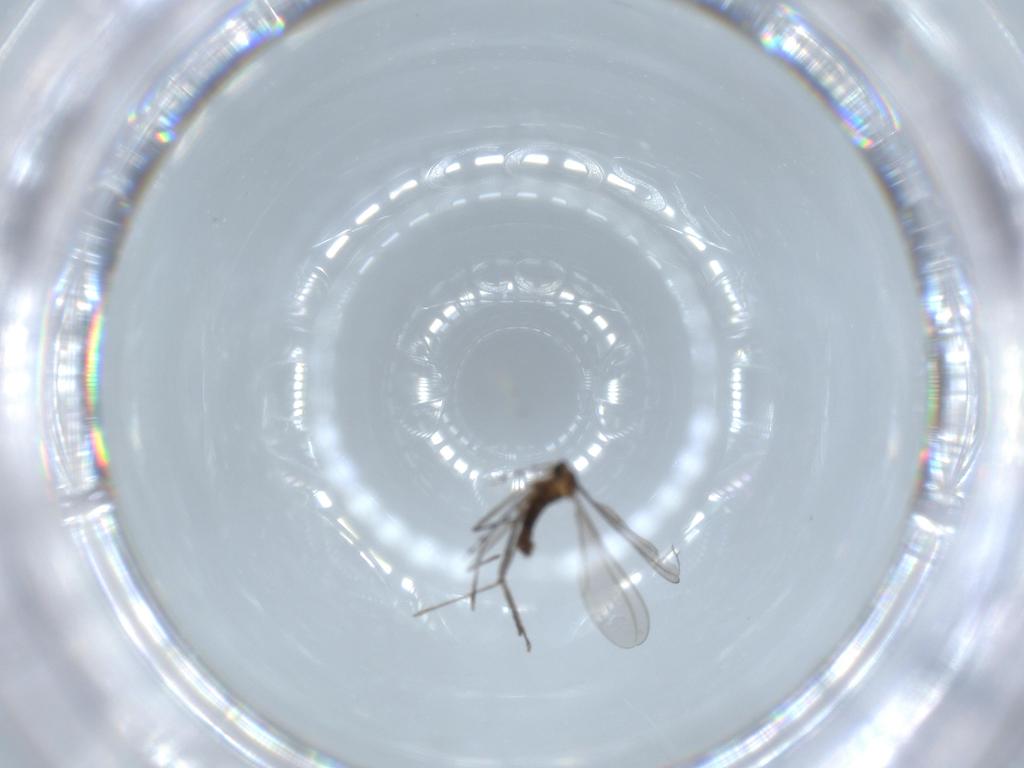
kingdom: Animalia
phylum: Arthropoda
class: Insecta
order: Diptera
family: Cecidomyiidae
